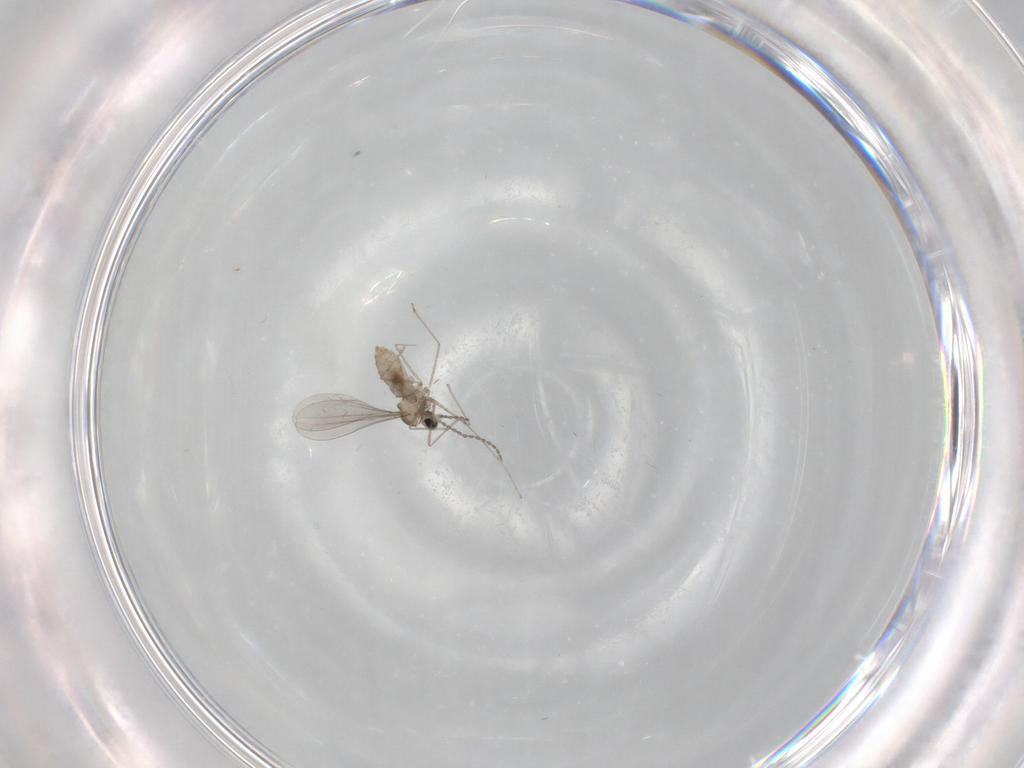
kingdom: Animalia
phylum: Arthropoda
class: Insecta
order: Diptera
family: Cecidomyiidae
